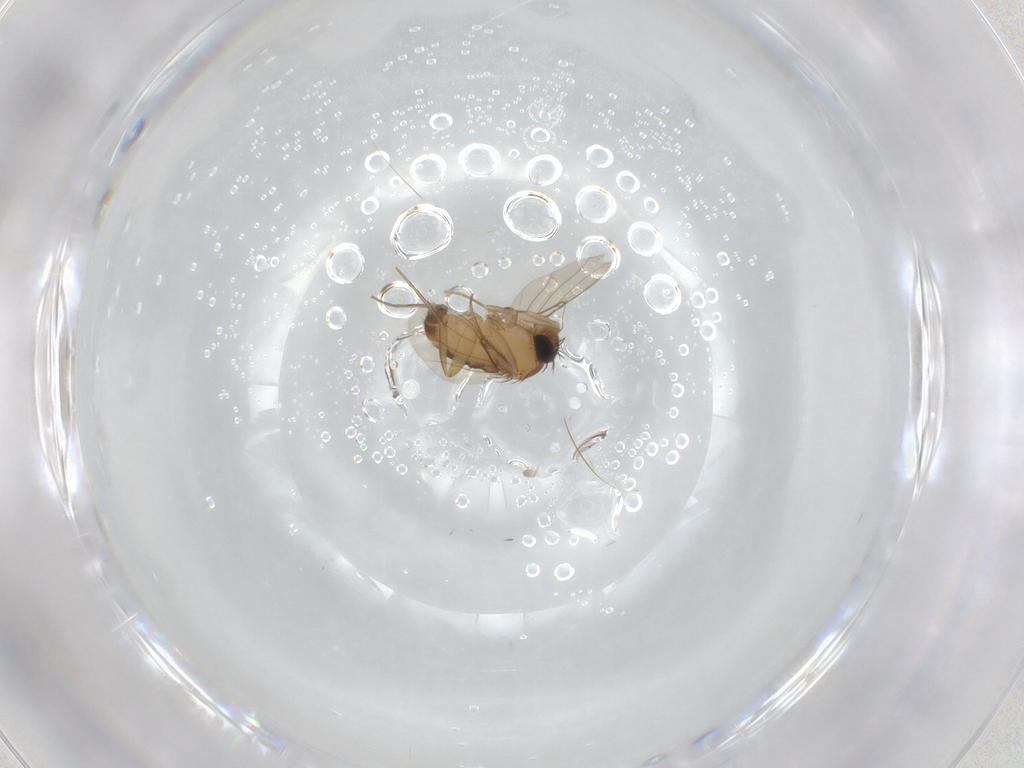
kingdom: Animalia
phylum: Arthropoda
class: Insecta
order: Diptera
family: Phoridae
